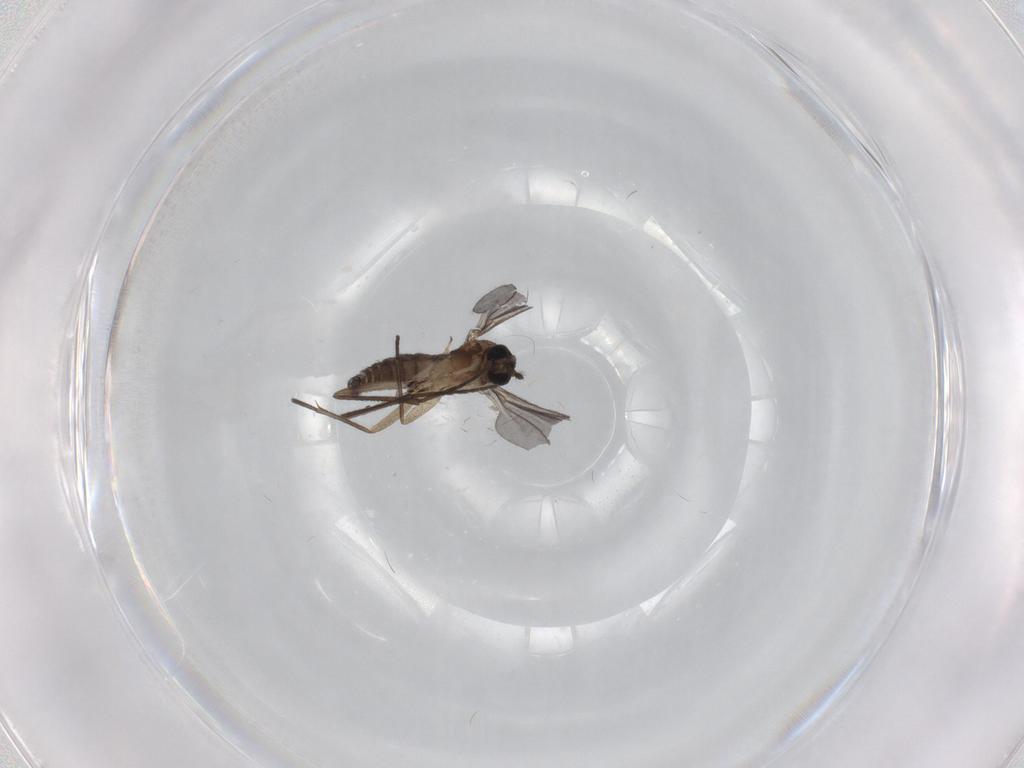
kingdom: Animalia
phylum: Arthropoda
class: Insecta
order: Diptera
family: Sciaridae
